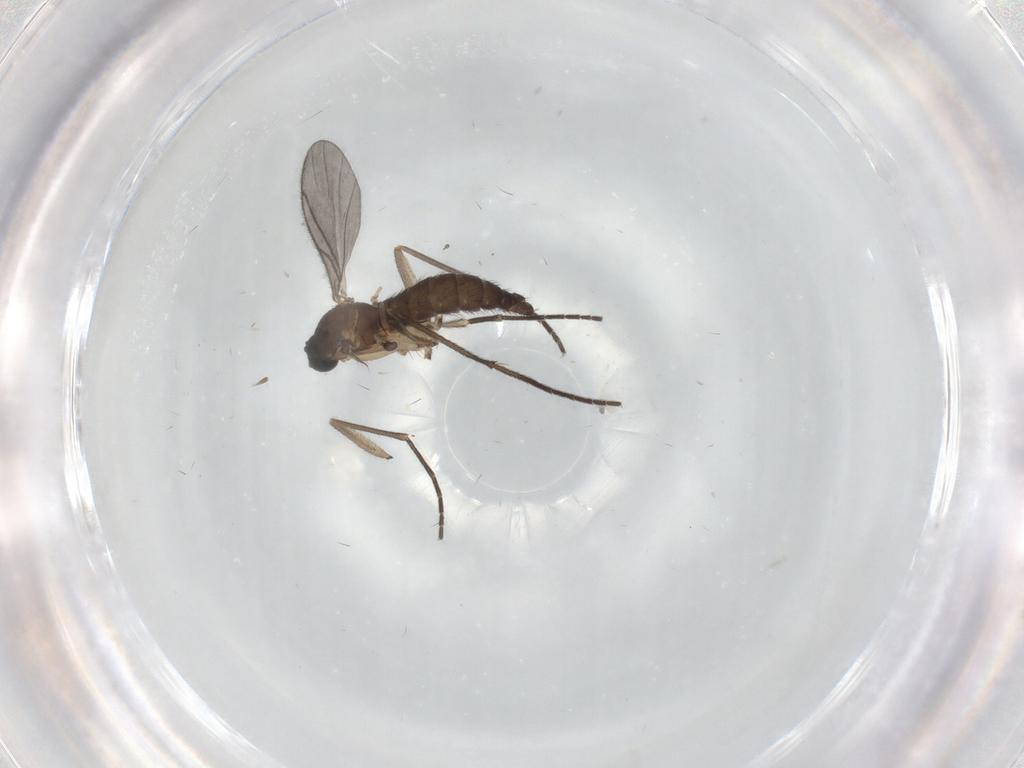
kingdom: Animalia
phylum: Arthropoda
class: Insecta
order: Diptera
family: Sciaridae
